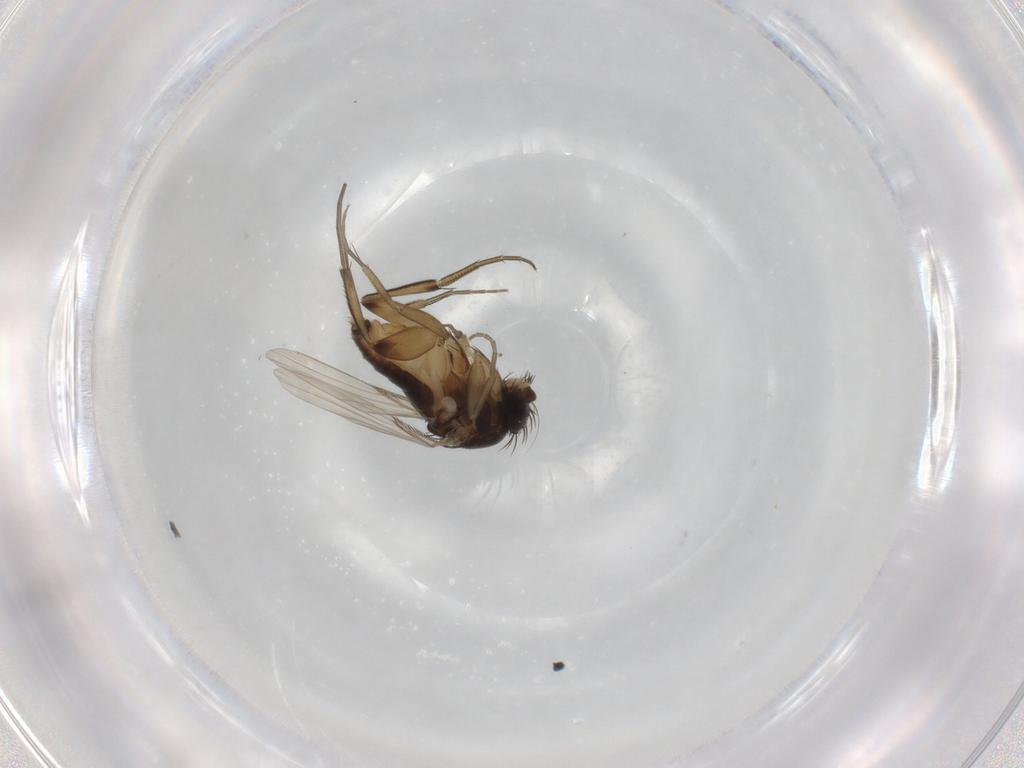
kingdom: Animalia
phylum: Arthropoda
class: Insecta
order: Diptera
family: Phoridae
